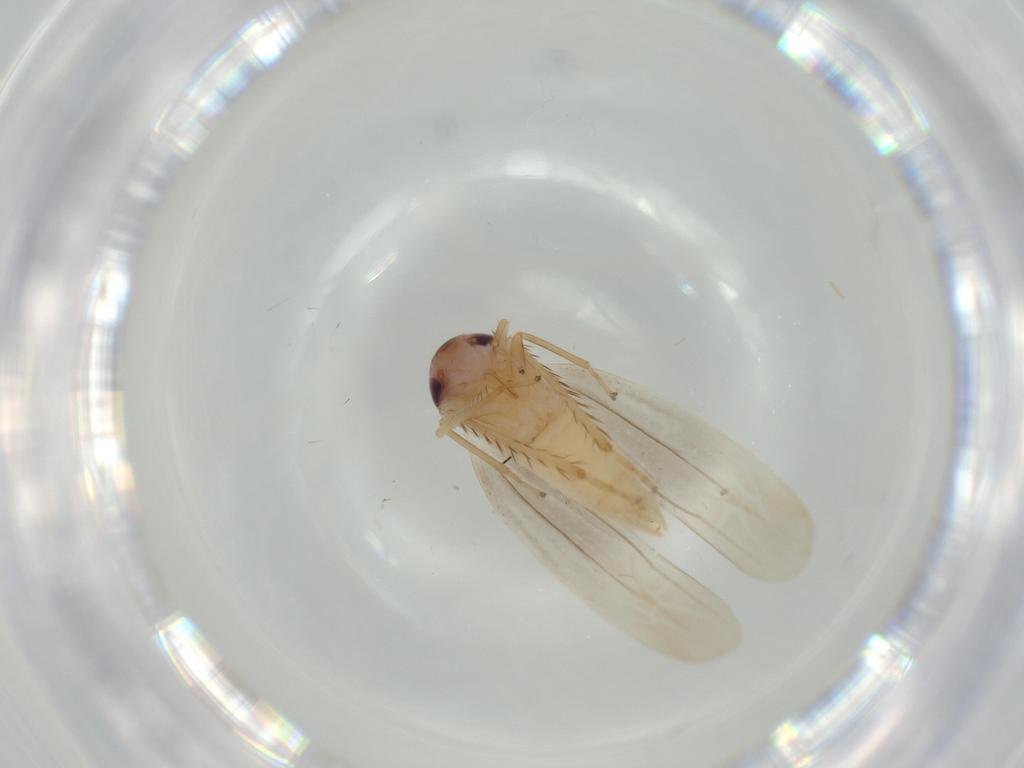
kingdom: Animalia
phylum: Arthropoda
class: Insecta
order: Hemiptera
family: Cicadellidae
